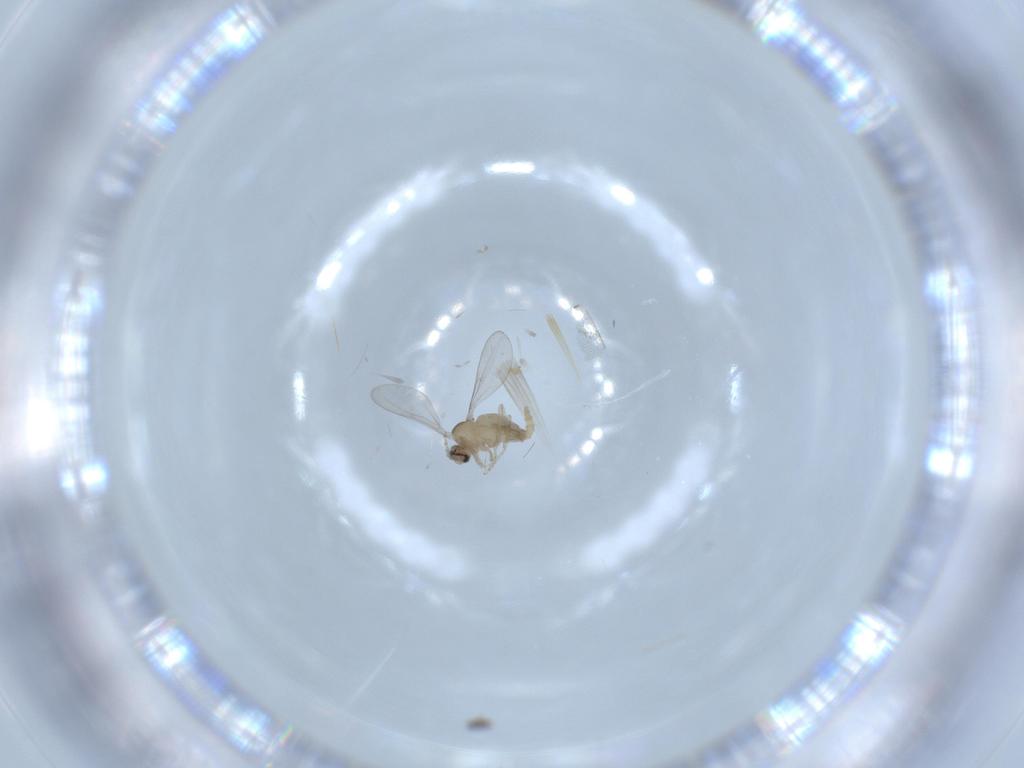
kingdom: Animalia
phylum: Arthropoda
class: Insecta
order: Diptera
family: Cecidomyiidae
